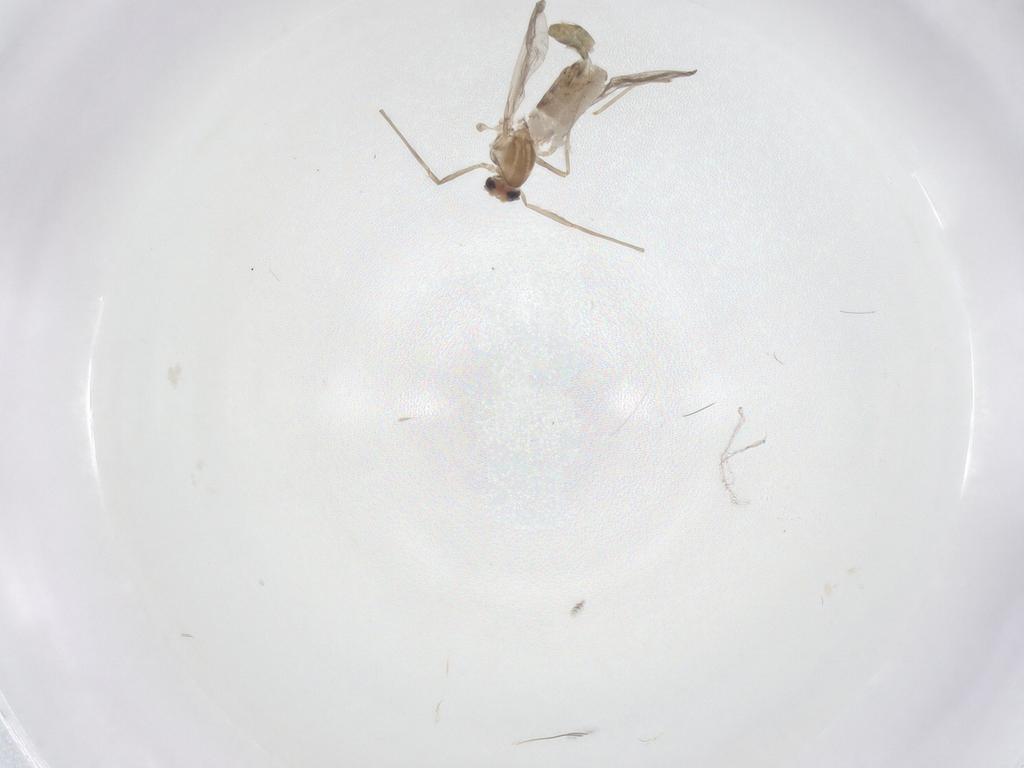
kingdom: Animalia
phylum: Arthropoda
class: Insecta
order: Diptera
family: Chironomidae
